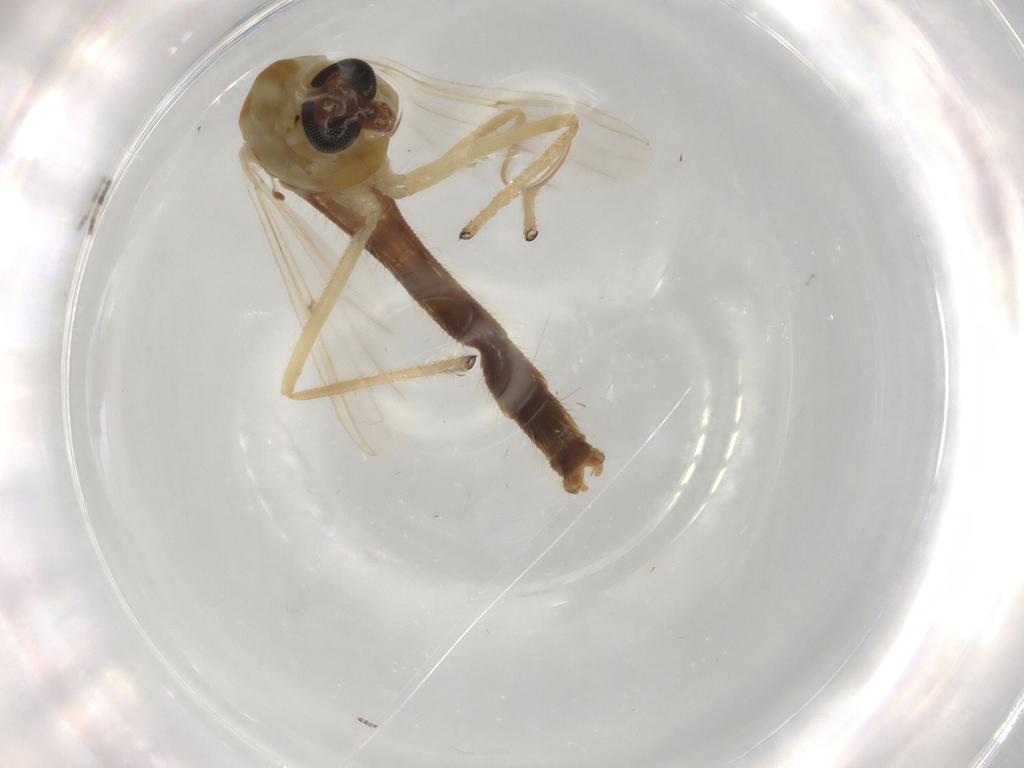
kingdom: Animalia
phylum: Arthropoda
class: Insecta
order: Diptera
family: Chironomidae
